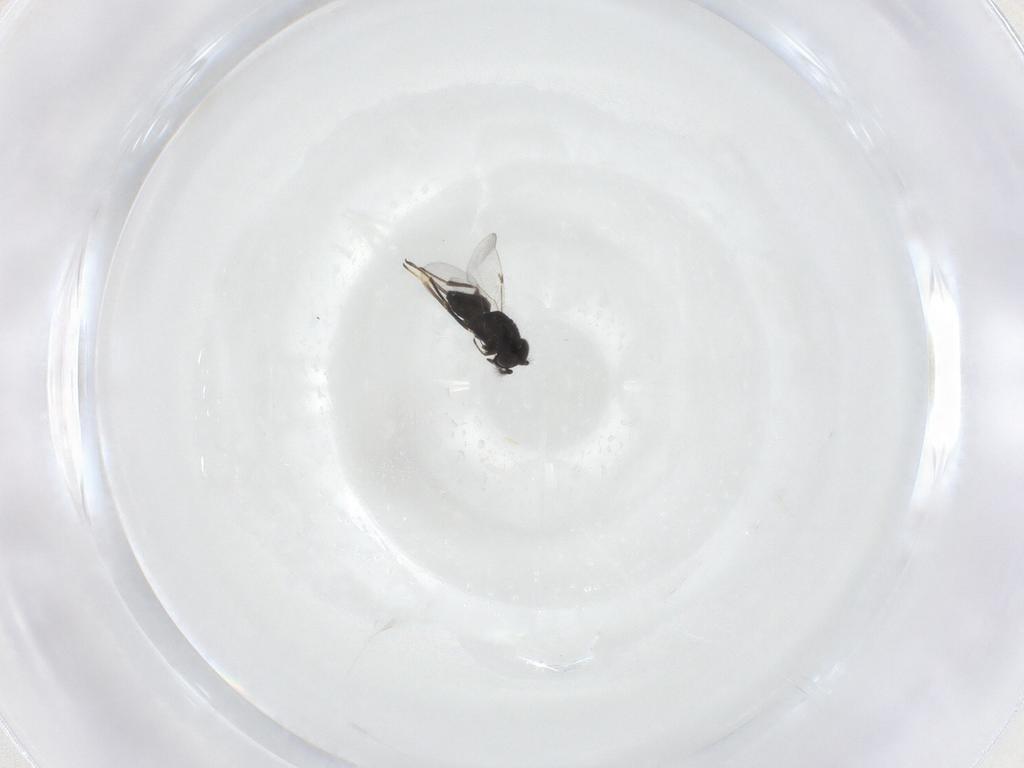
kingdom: Animalia
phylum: Arthropoda
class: Insecta
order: Hymenoptera
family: Encyrtidae
